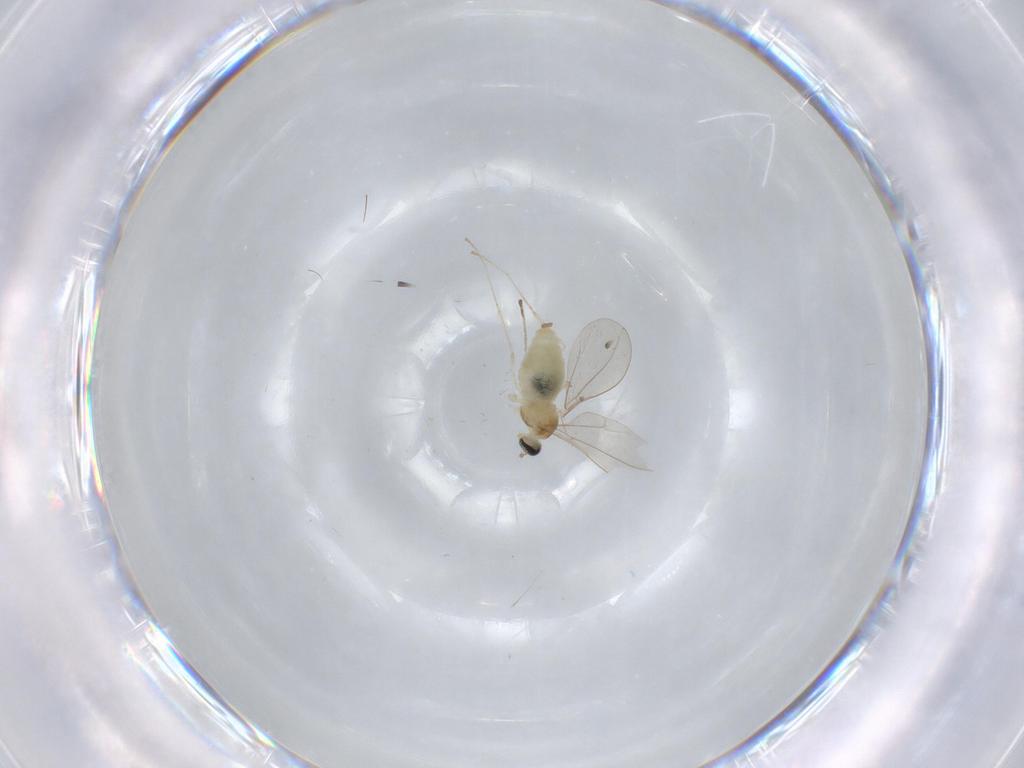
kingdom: Animalia
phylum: Arthropoda
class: Insecta
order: Diptera
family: Cecidomyiidae
